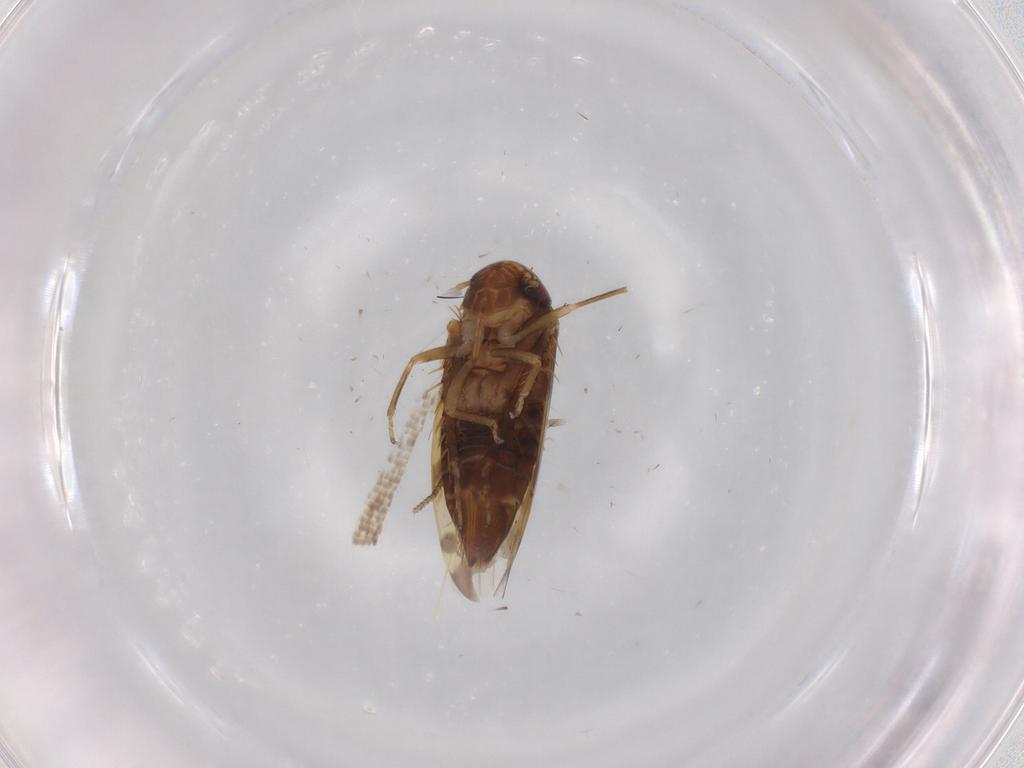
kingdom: Animalia
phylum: Arthropoda
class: Insecta
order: Hemiptera
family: Cicadellidae
